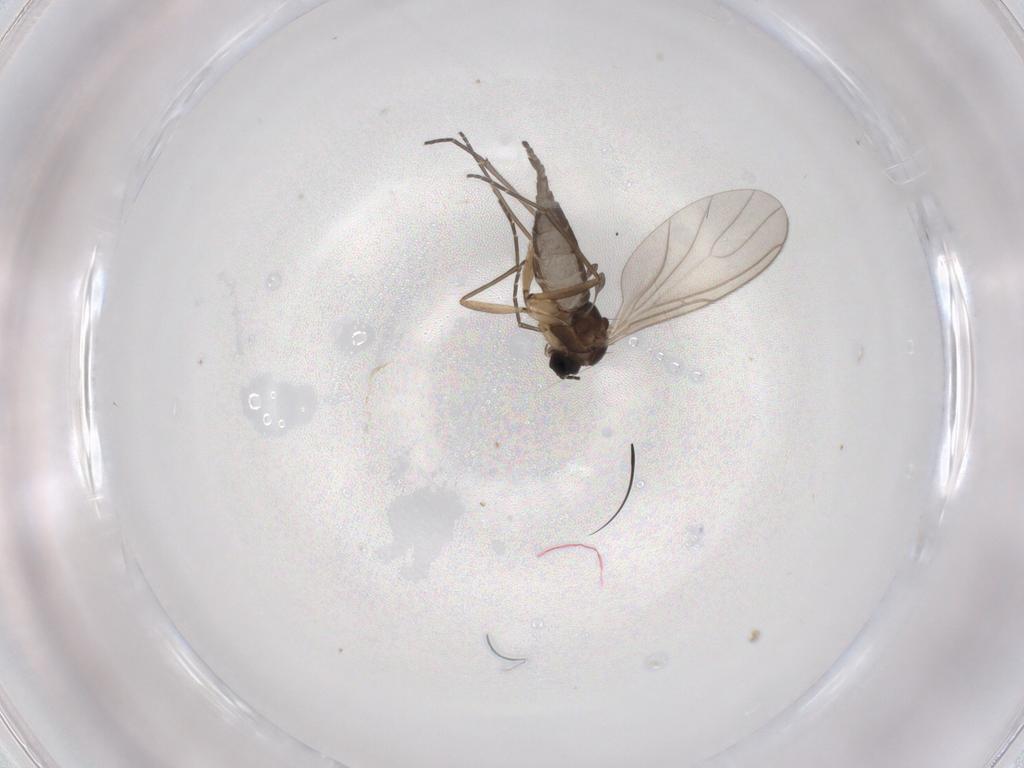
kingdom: Animalia
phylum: Arthropoda
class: Insecta
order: Diptera
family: Sciaridae
